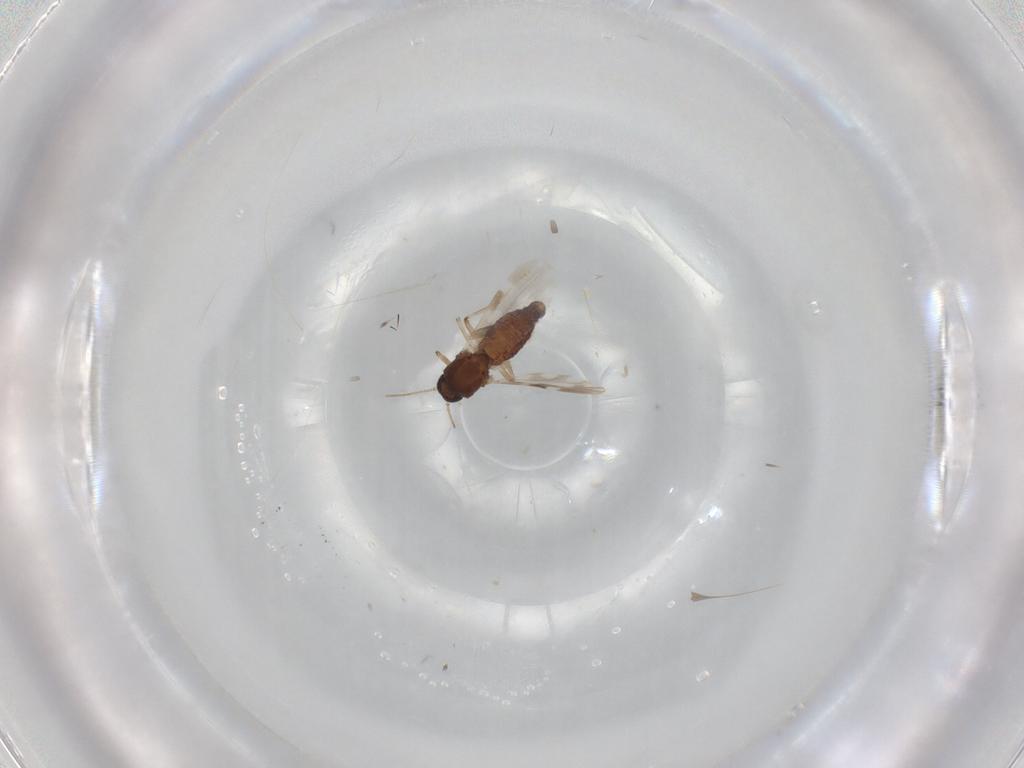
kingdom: Animalia
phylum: Arthropoda
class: Insecta
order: Diptera
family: Ceratopogonidae
